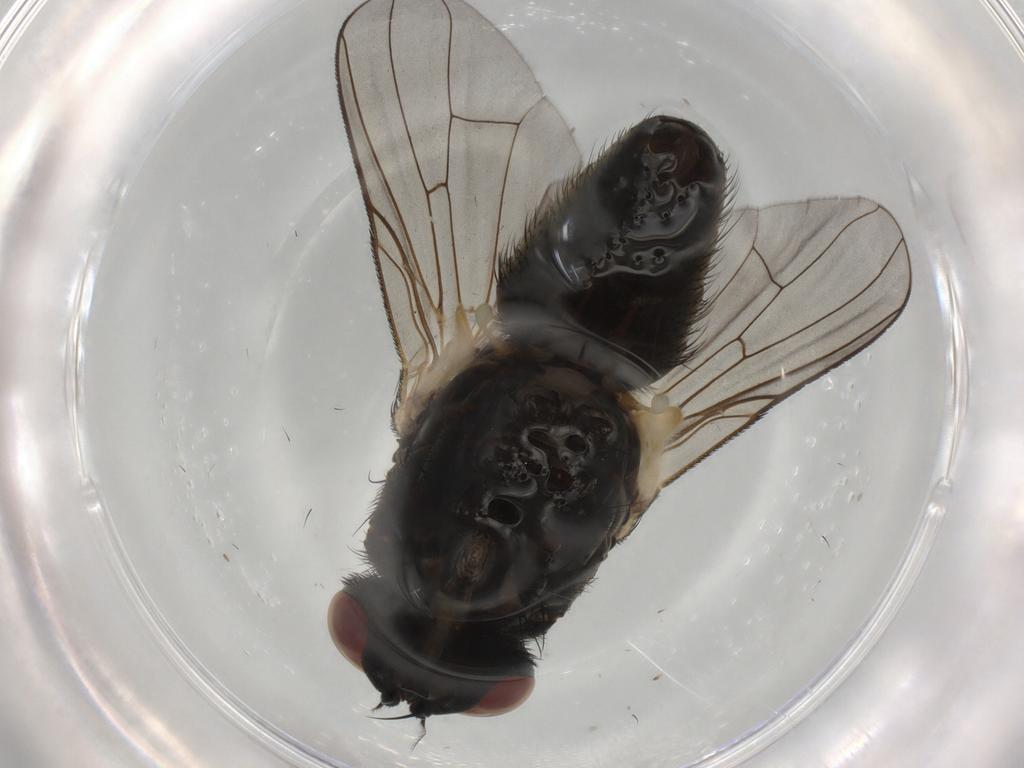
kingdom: Animalia
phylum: Arthropoda
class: Insecta
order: Diptera
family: Muscidae
